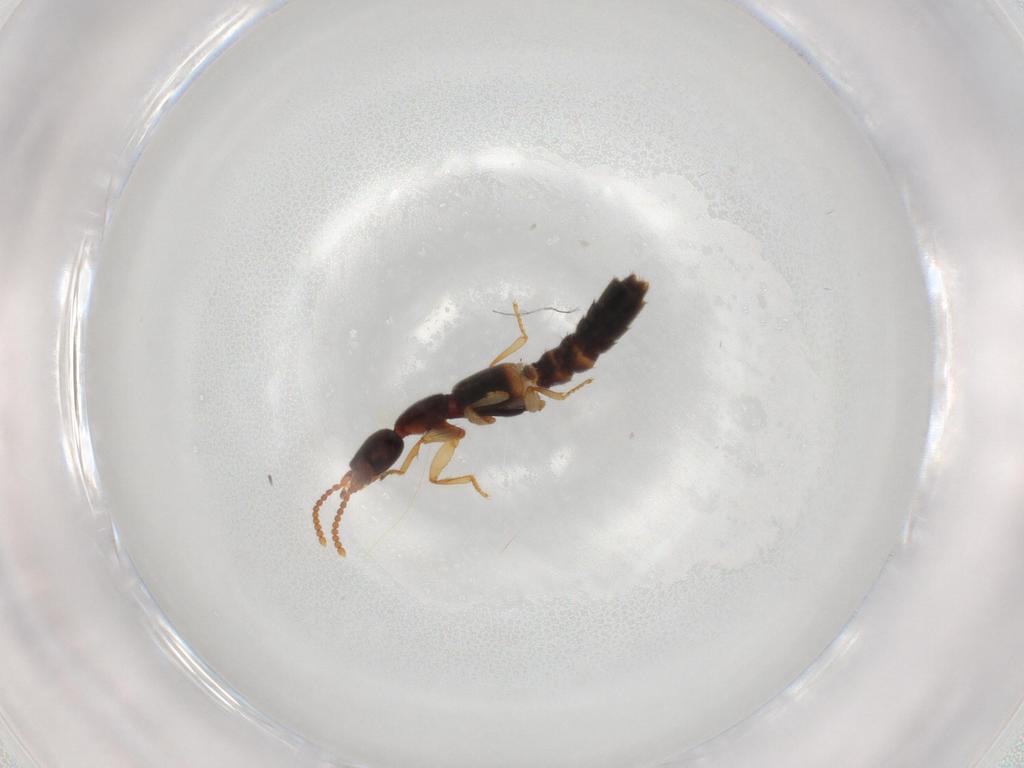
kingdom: Animalia
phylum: Arthropoda
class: Insecta
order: Coleoptera
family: Staphylinidae
